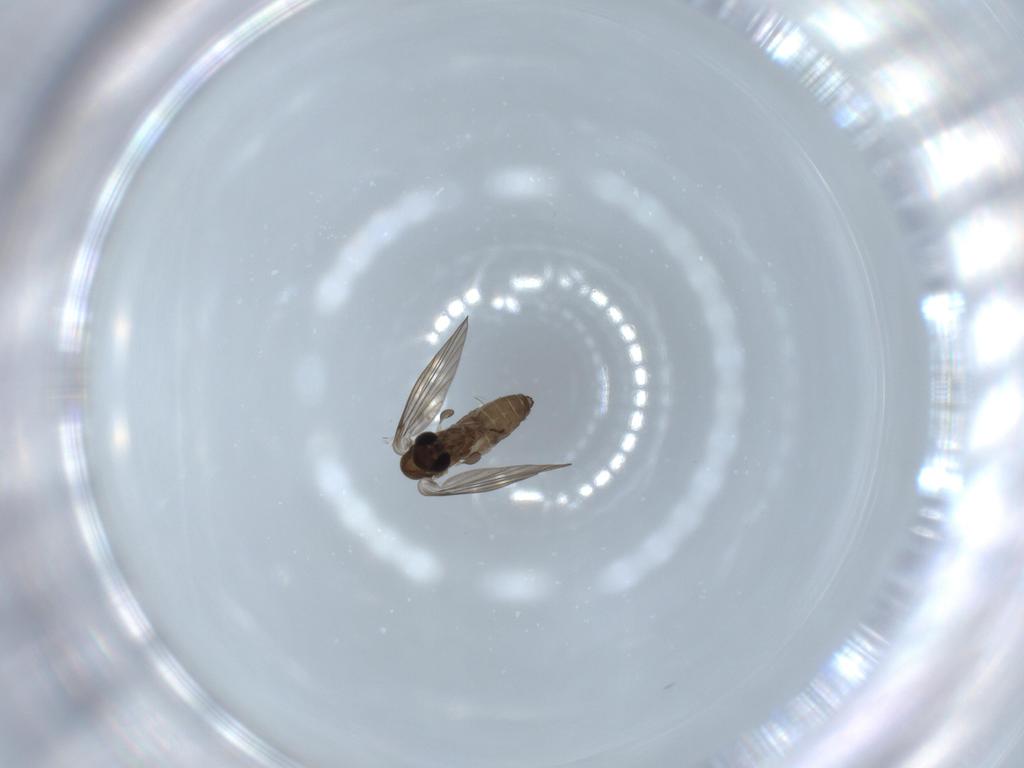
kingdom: Animalia
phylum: Arthropoda
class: Insecta
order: Diptera
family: Psychodidae
